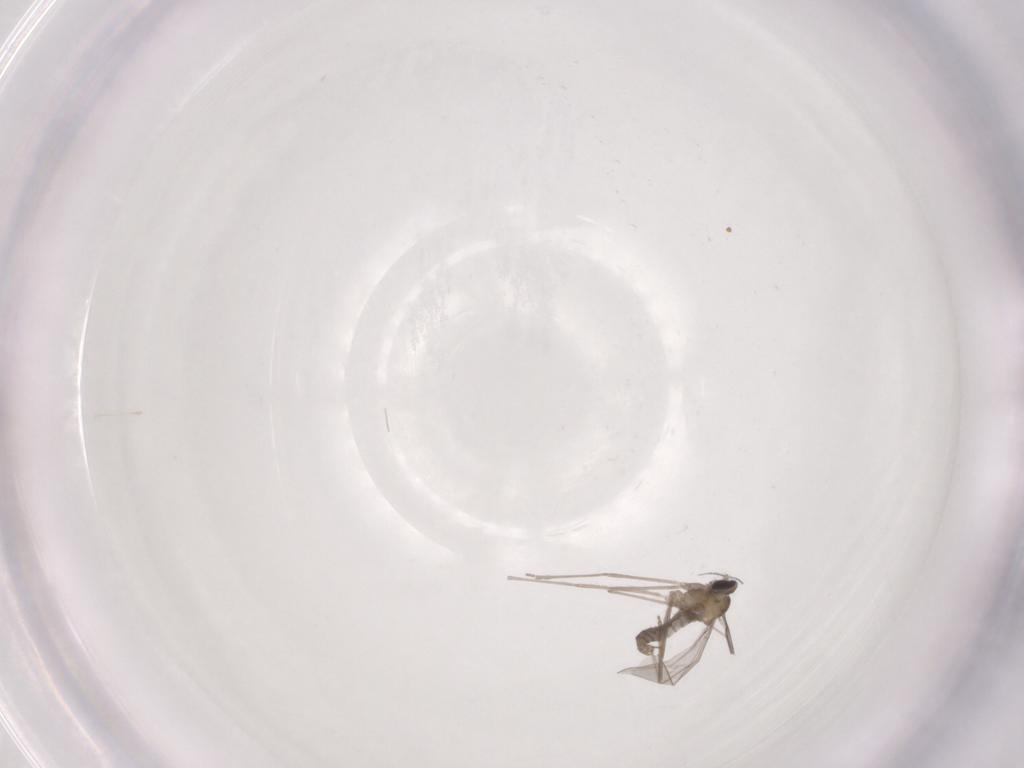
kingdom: Animalia
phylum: Arthropoda
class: Insecta
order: Diptera
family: Cecidomyiidae
